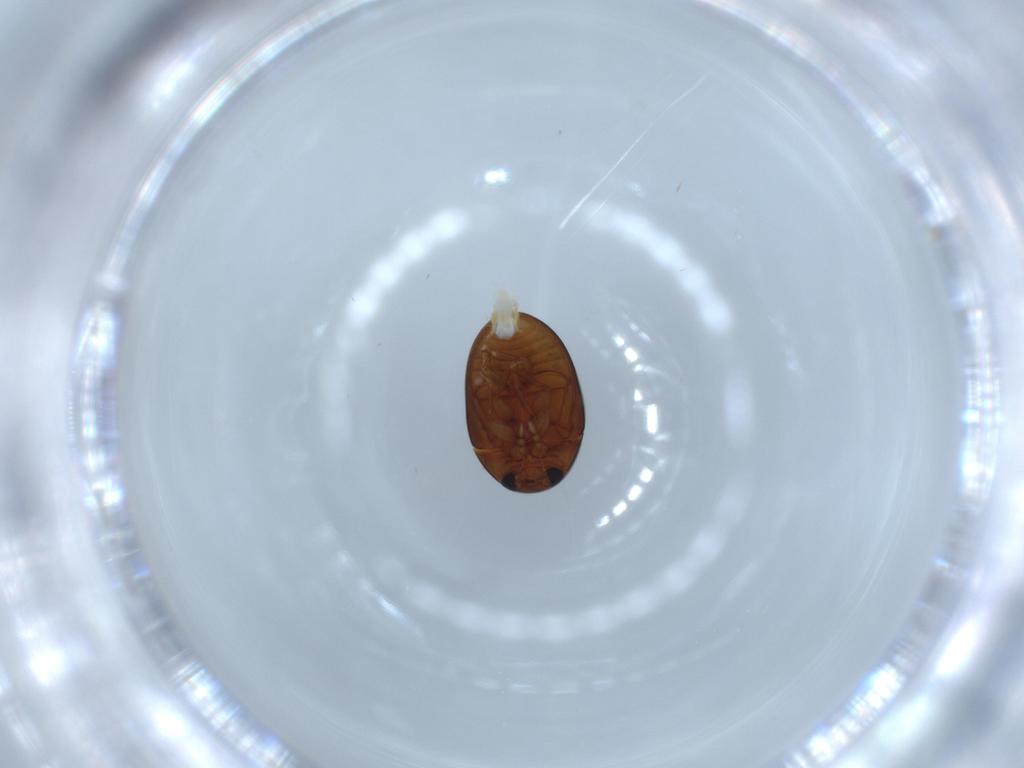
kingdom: Animalia
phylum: Arthropoda
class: Insecta
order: Coleoptera
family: Phalacridae
